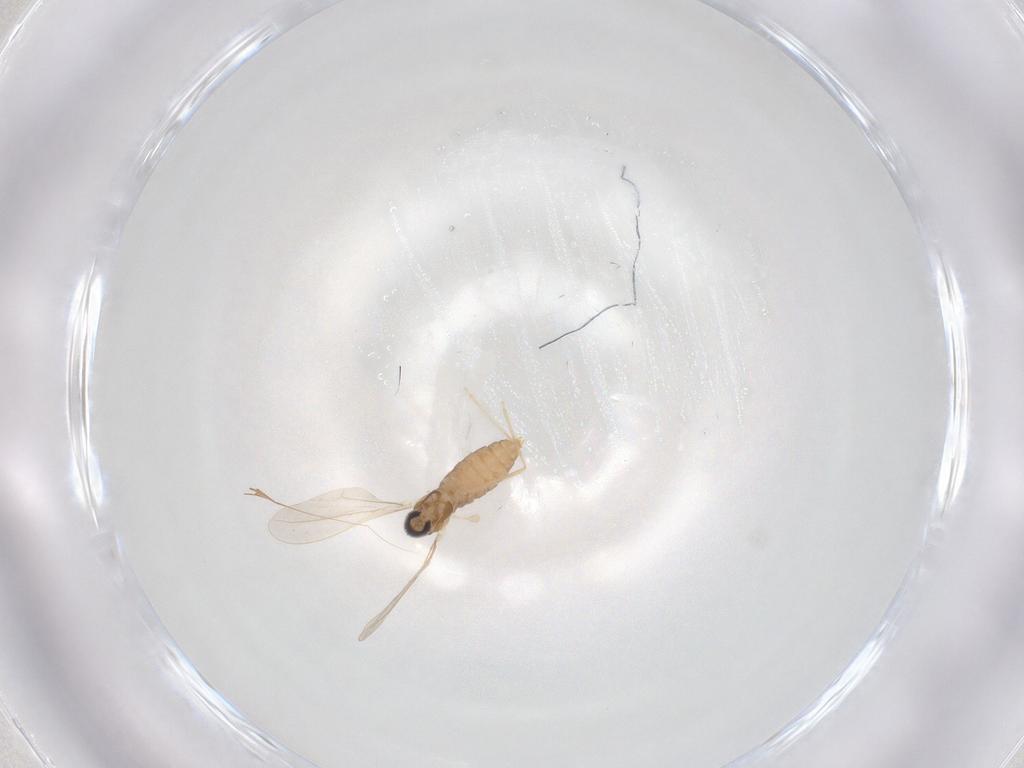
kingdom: Animalia
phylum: Arthropoda
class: Insecta
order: Diptera
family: Cecidomyiidae
